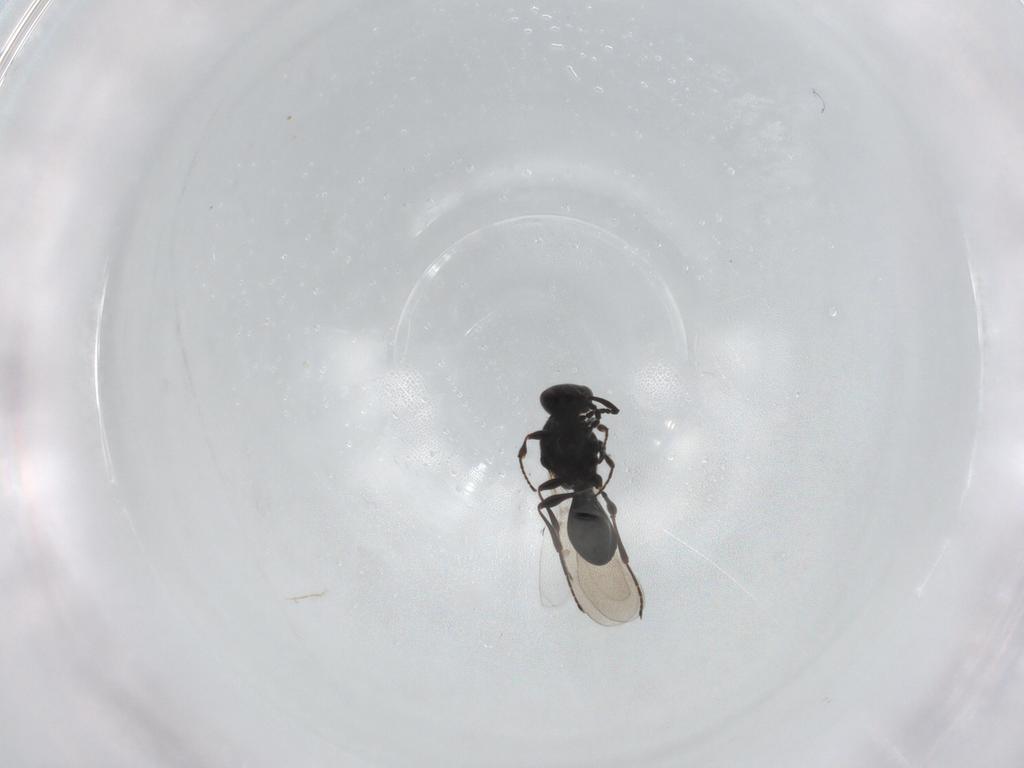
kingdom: Animalia
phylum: Arthropoda
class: Insecta
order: Hymenoptera
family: Platygastridae
